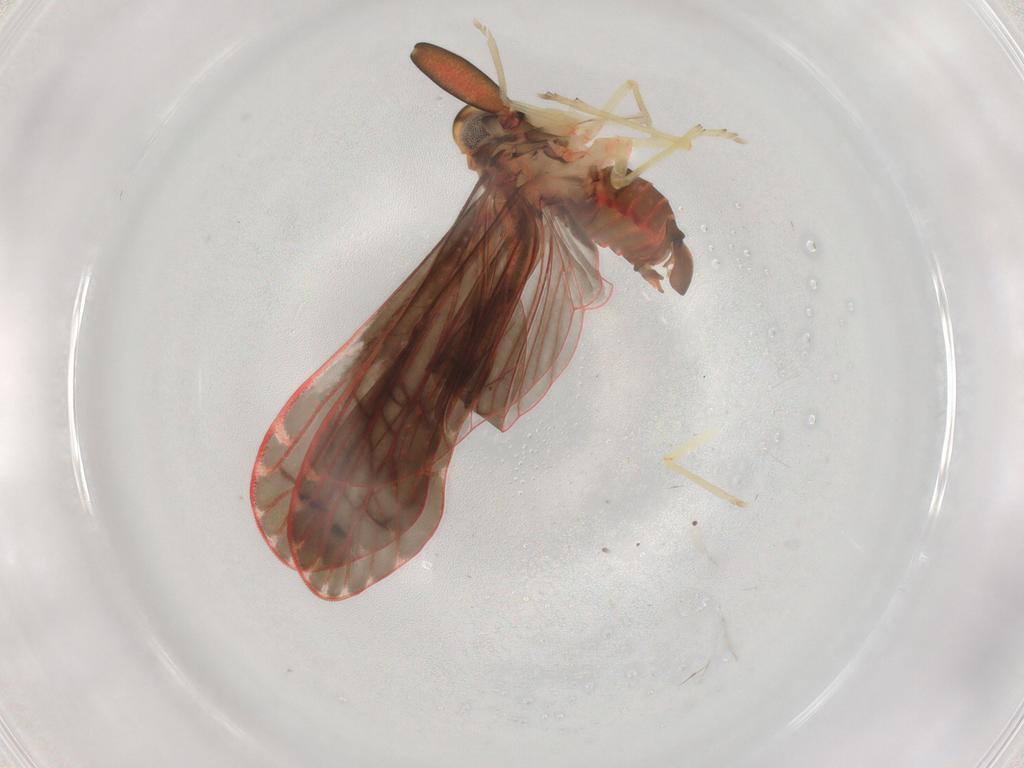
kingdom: Animalia
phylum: Arthropoda
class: Insecta
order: Hemiptera
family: Derbidae
